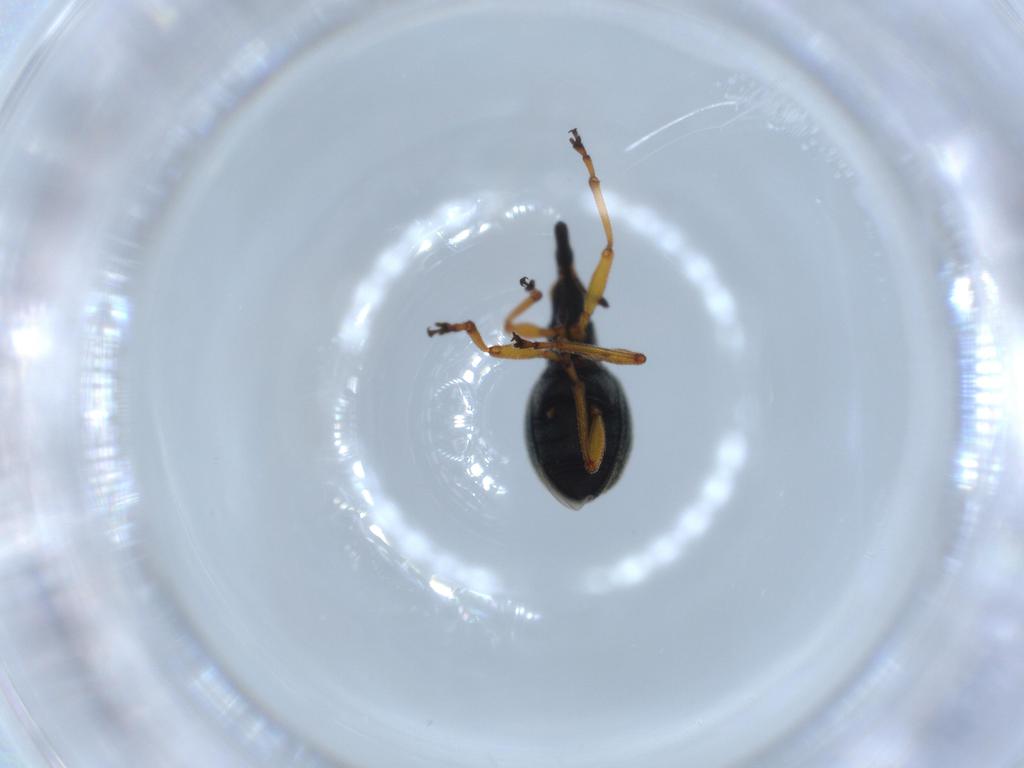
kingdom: Animalia
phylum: Arthropoda
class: Insecta
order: Coleoptera
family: Brentidae
